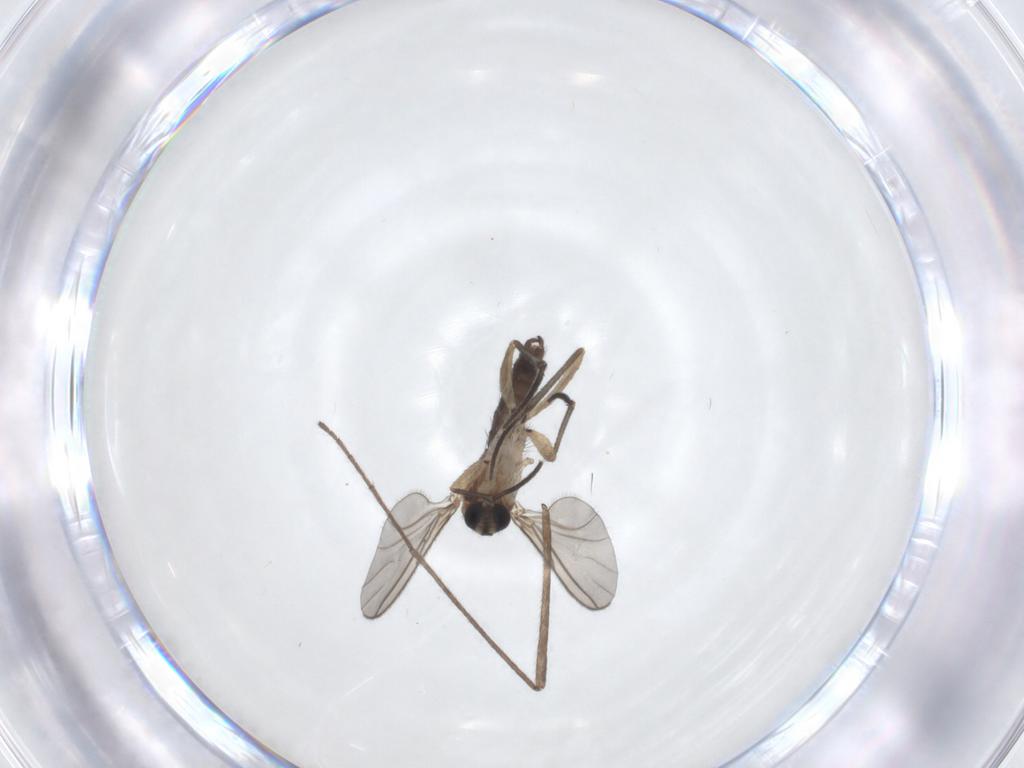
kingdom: Animalia
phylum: Arthropoda
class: Insecta
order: Diptera
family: Sciaridae
